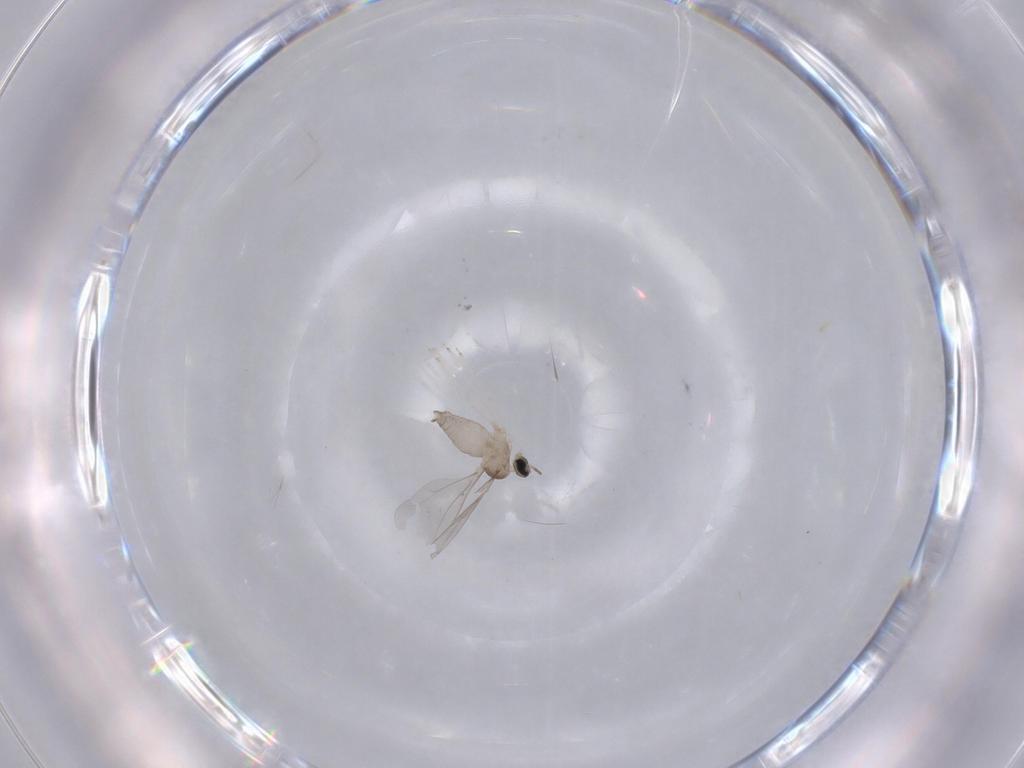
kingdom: Animalia
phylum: Arthropoda
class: Insecta
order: Diptera
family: Cecidomyiidae
